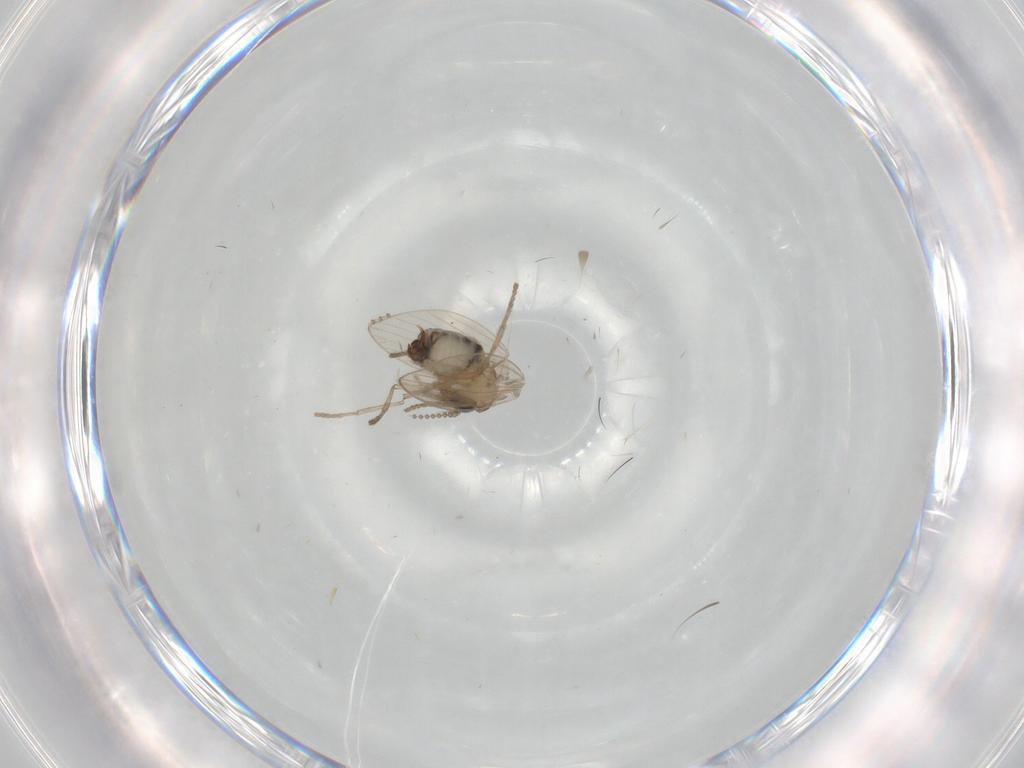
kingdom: Animalia
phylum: Arthropoda
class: Insecta
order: Diptera
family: Psychodidae
